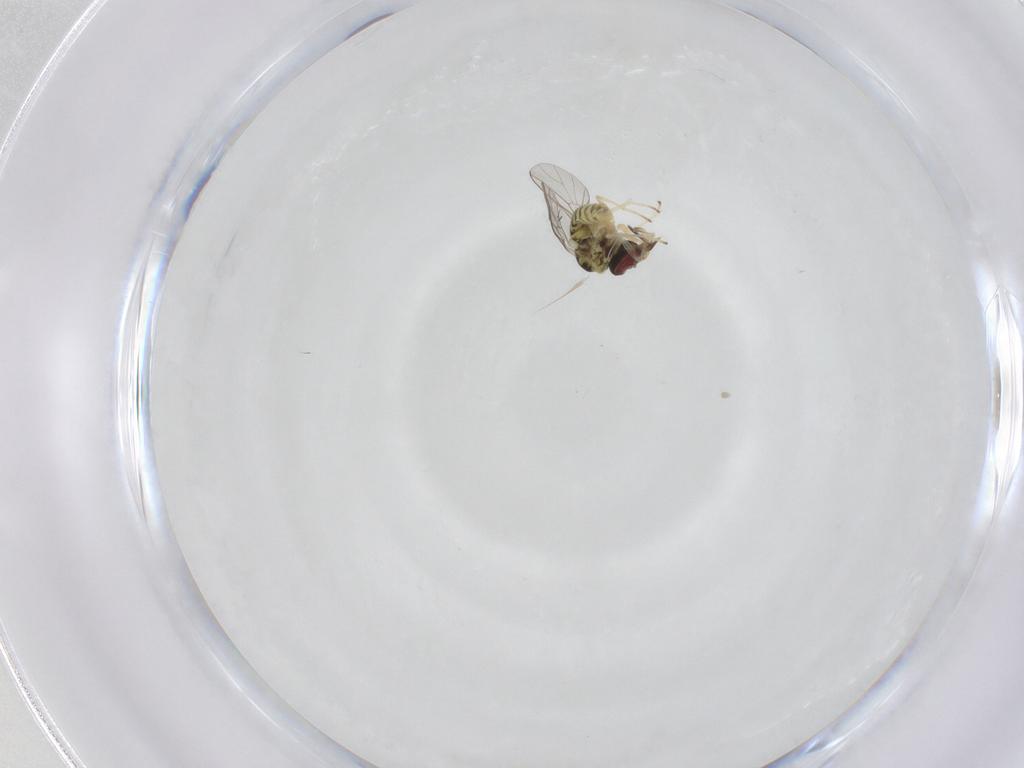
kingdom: Animalia
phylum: Arthropoda
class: Insecta
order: Diptera
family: Mythicomyiidae
